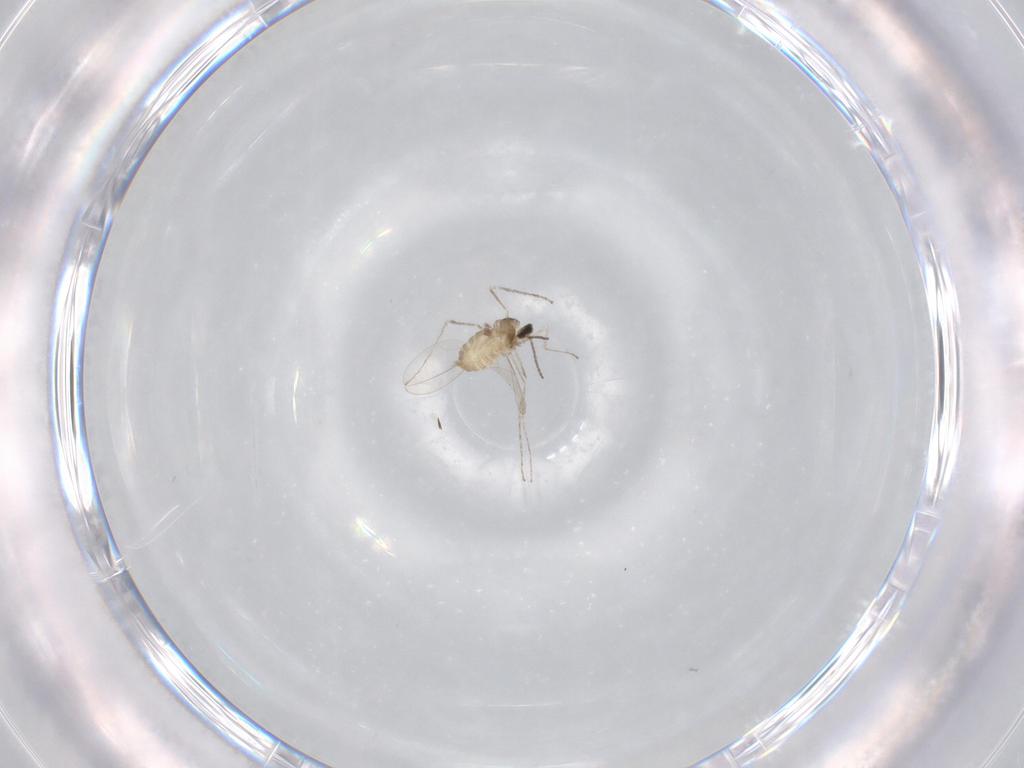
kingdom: Animalia
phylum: Arthropoda
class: Insecta
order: Diptera
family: Cecidomyiidae
